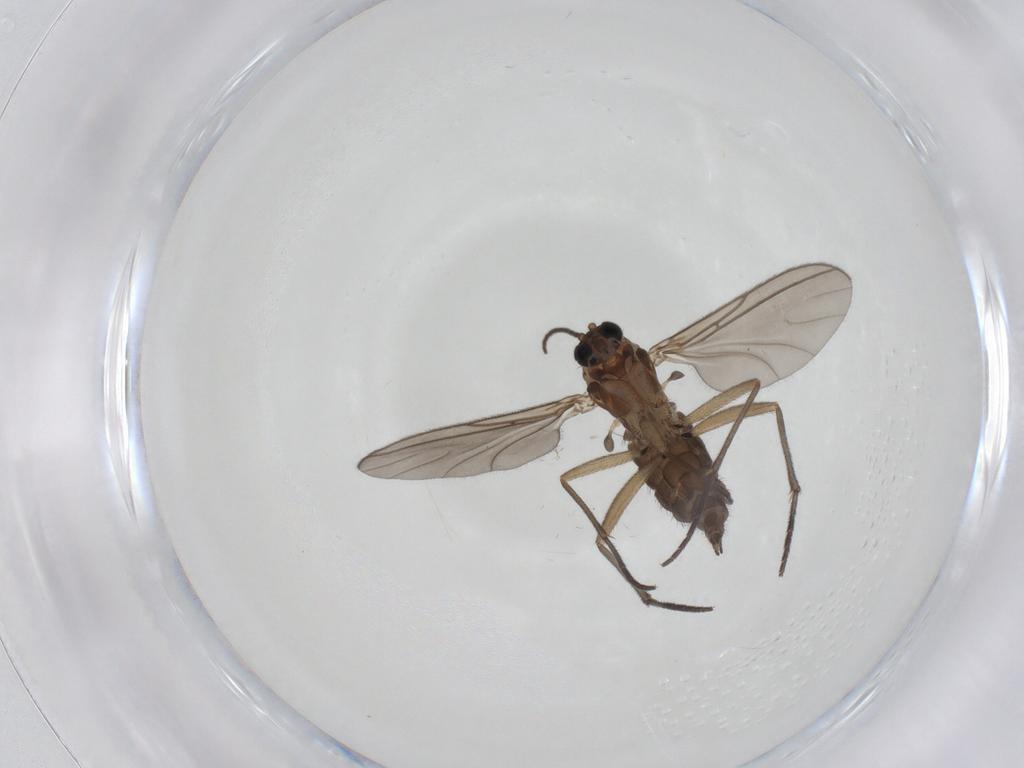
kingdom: Animalia
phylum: Arthropoda
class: Insecta
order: Diptera
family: Sciaridae
